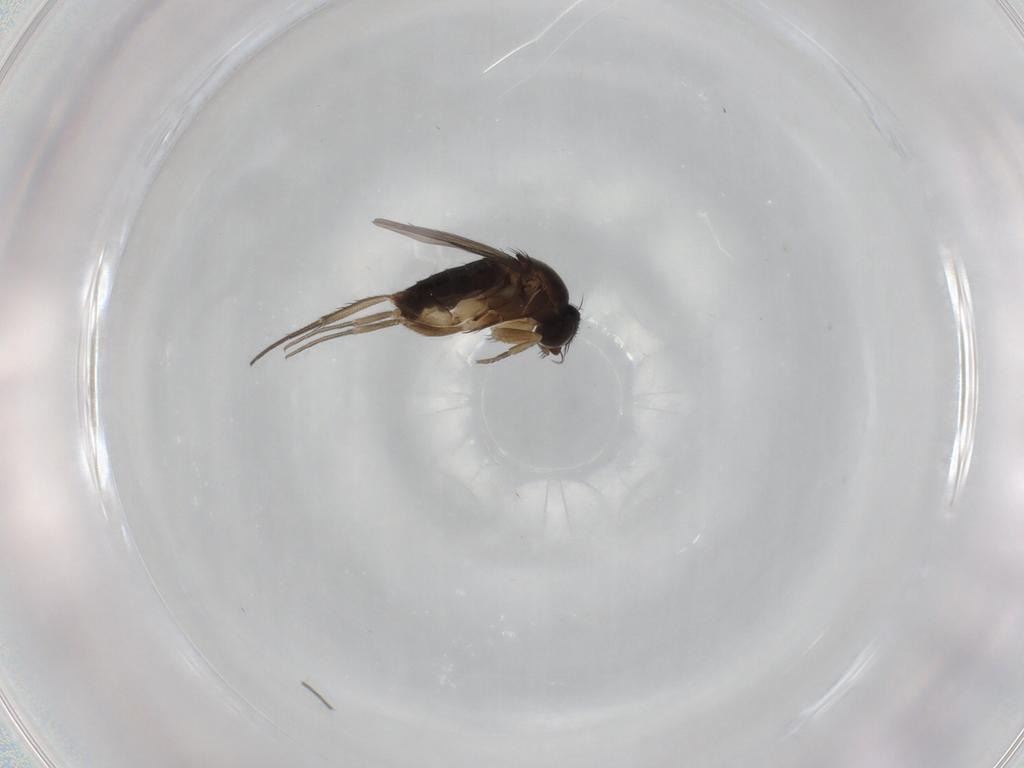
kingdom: Animalia
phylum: Arthropoda
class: Insecta
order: Diptera
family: Phoridae
